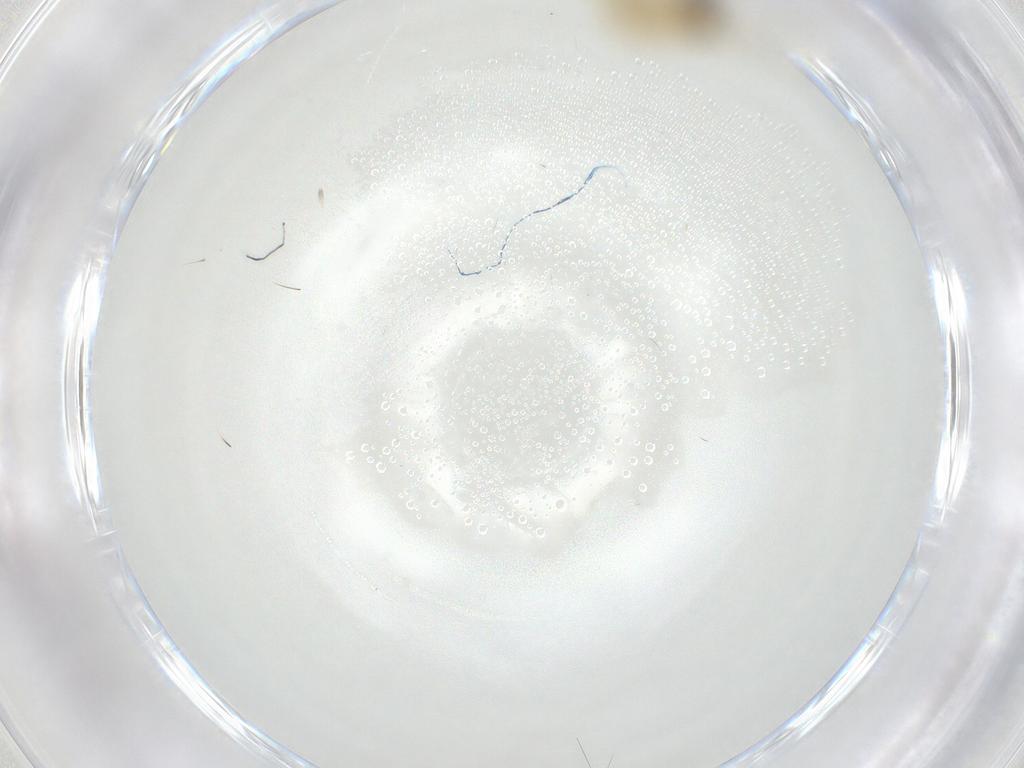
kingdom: Animalia
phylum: Arthropoda
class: Insecta
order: Diptera
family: Chironomidae
